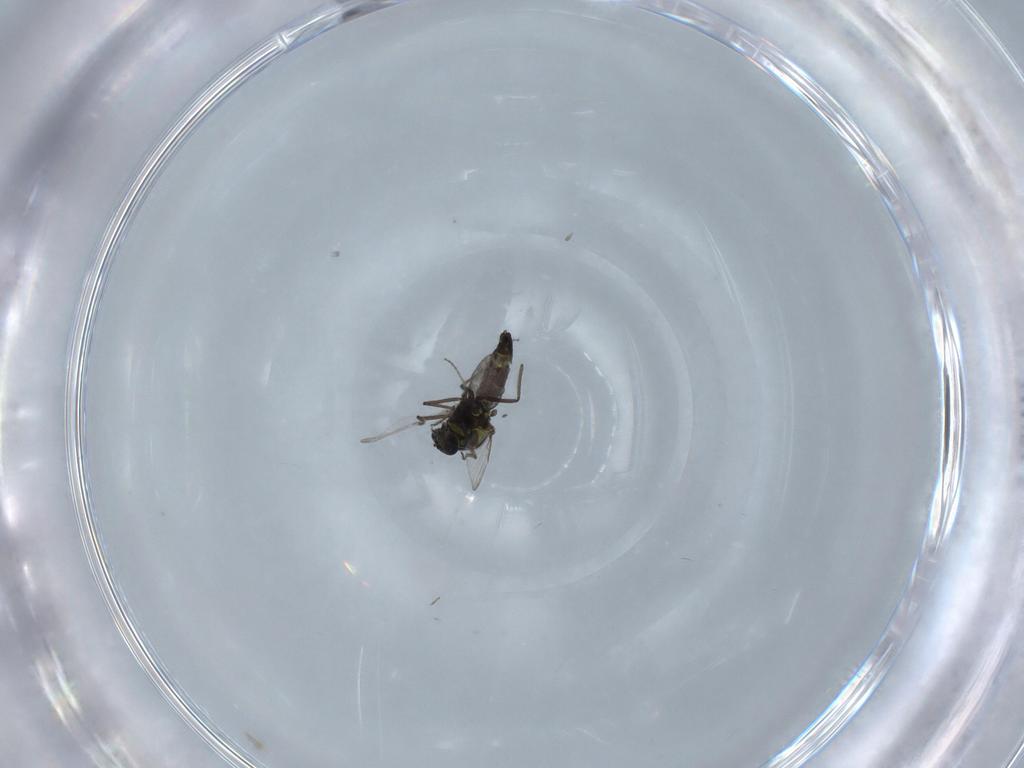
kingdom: Animalia
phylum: Arthropoda
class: Insecta
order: Diptera
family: Ceratopogonidae
